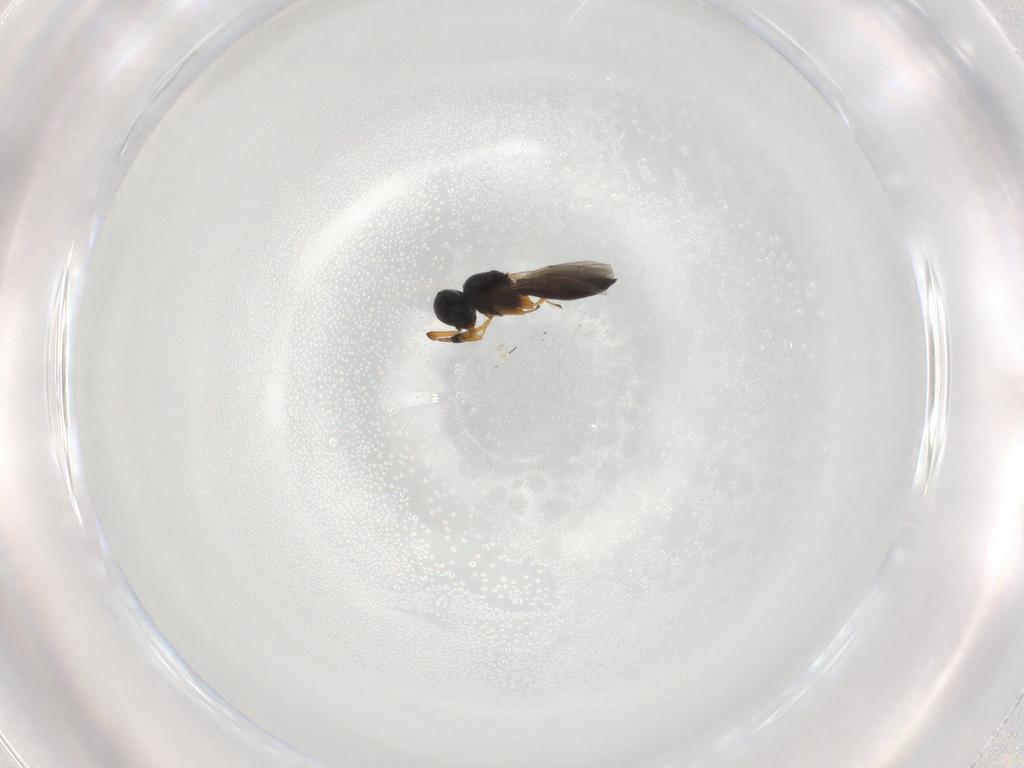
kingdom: Animalia
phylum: Arthropoda
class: Insecta
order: Hymenoptera
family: Scelionidae
